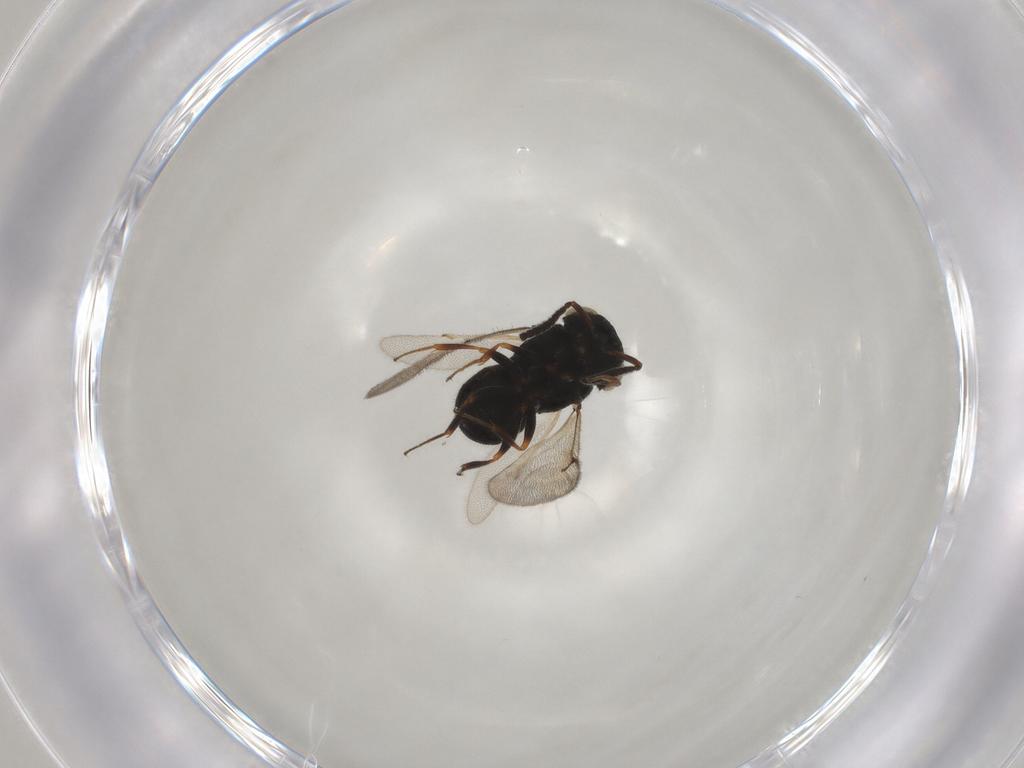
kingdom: Animalia
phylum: Arthropoda
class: Insecta
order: Hymenoptera
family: Scelionidae
